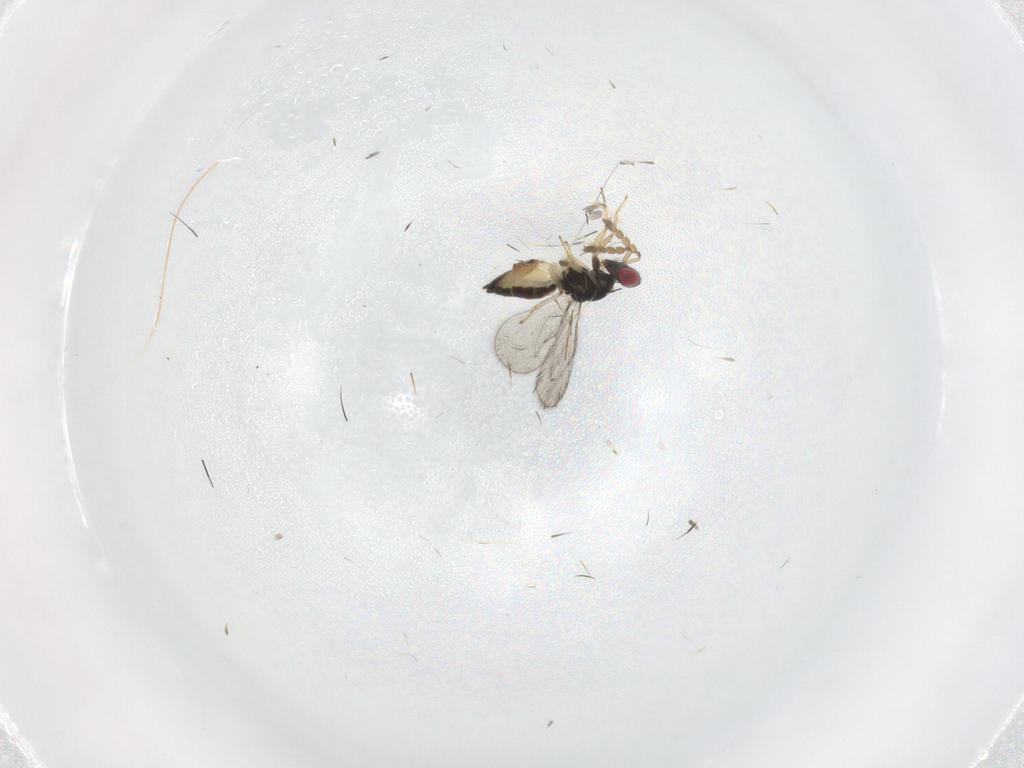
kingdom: Animalia
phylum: Arthropoda
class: Insecta
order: Hymenoptera
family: Eulophidae
